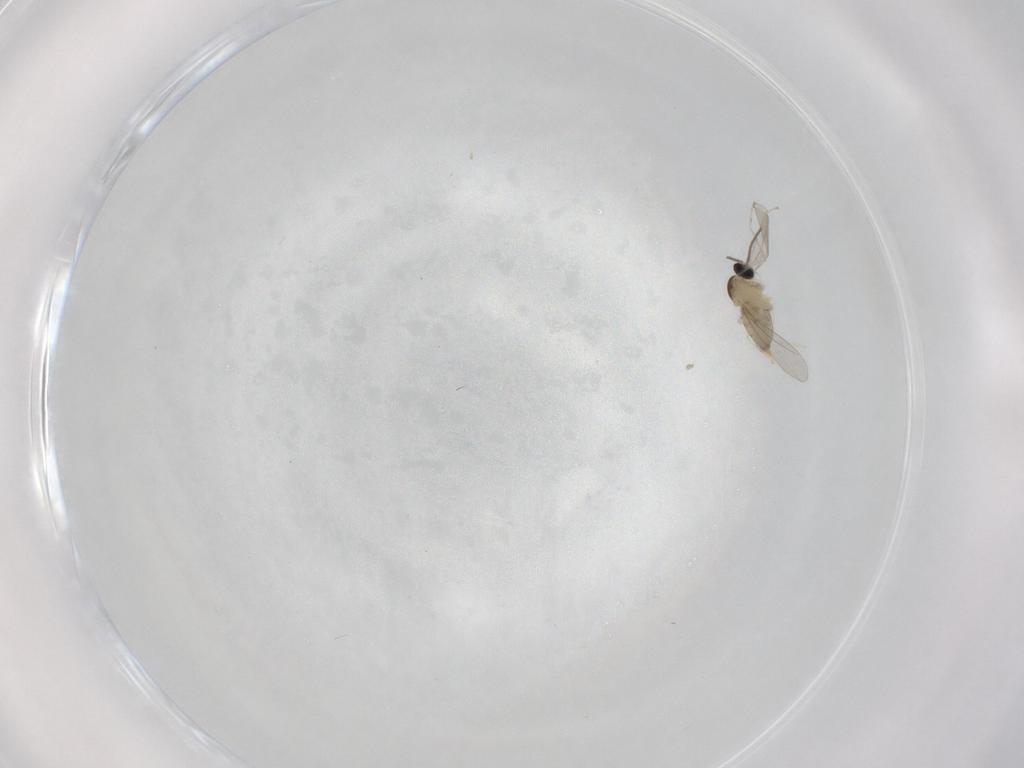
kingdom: Animalia
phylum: Arthropoda
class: Insecta
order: Diptera
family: Cecidomyiidae
